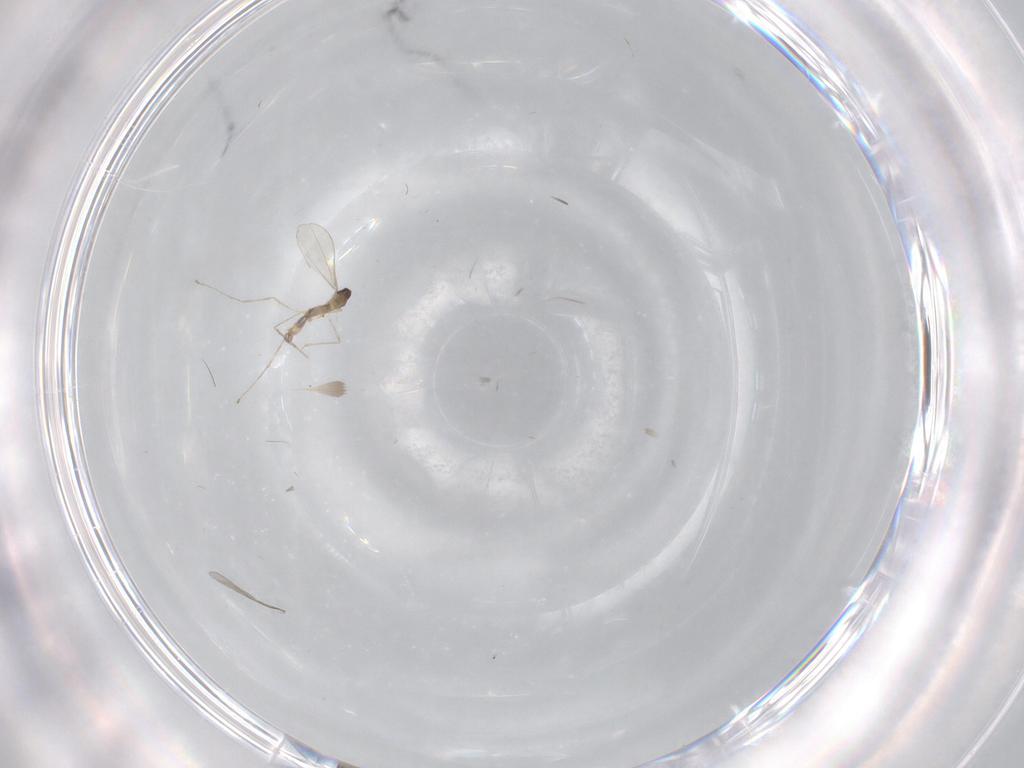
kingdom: Animalia
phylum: Arthropoda
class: Insecta
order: Diptera
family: Cecidomyiidae
